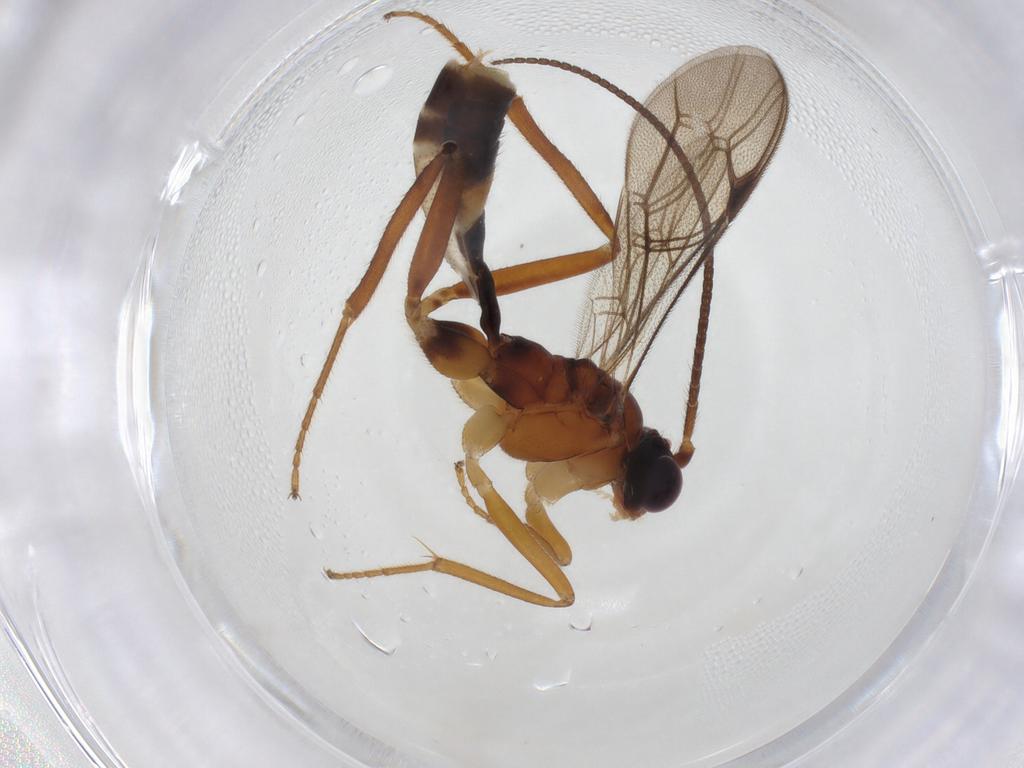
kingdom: Animalia
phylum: Arthropoda
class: Insecta
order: Hymenoptera
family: Ichneumonidae
